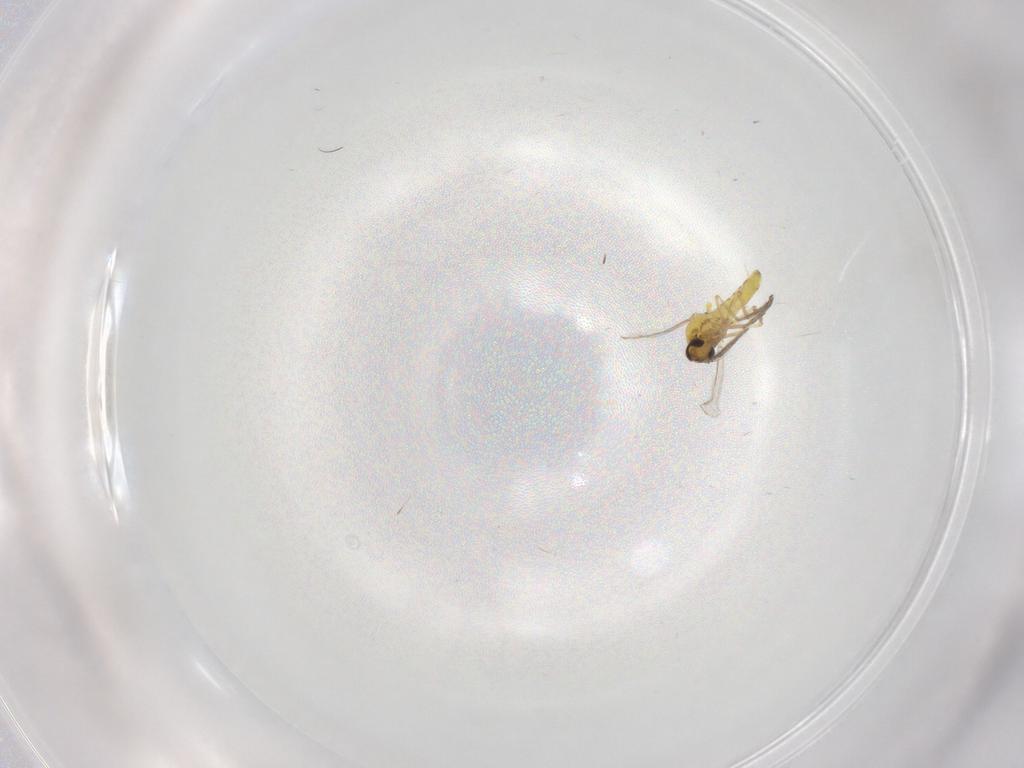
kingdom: Animalia
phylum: Arthropoda
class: Insecta
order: Diptera
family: Ceratopogonidae
